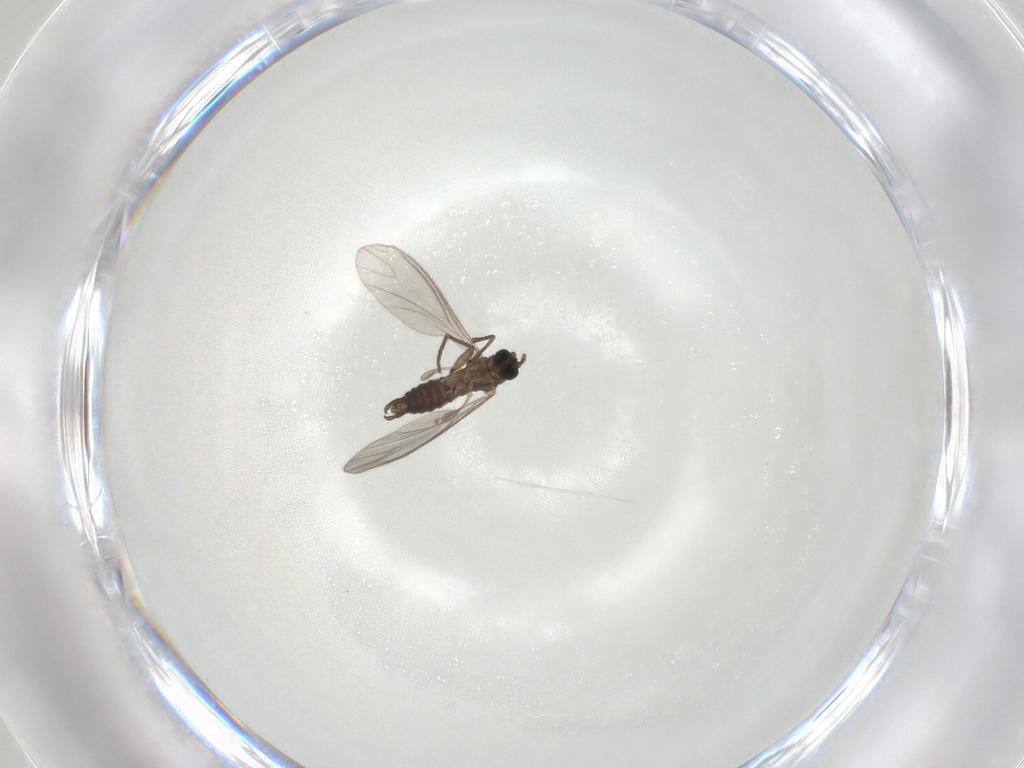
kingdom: Animalia
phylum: Arthropoda
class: Insecta
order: Diptera
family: Sciaridae
